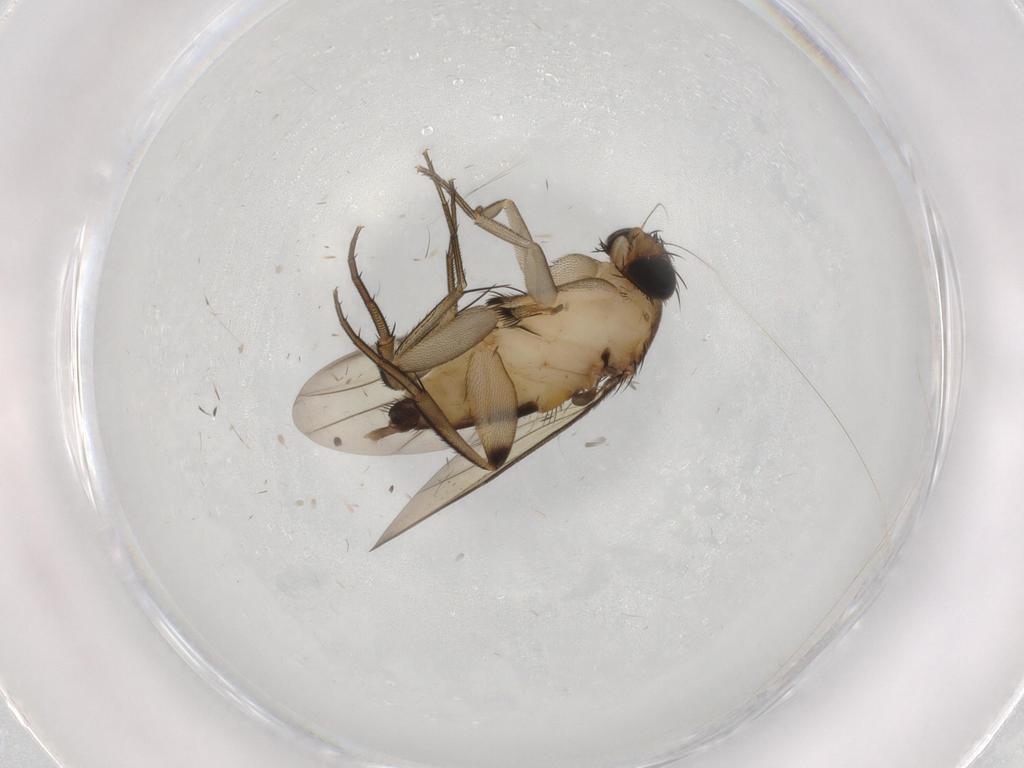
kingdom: Animalia
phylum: Arthropoda
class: Insecta
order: Diptera
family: Phoridae
